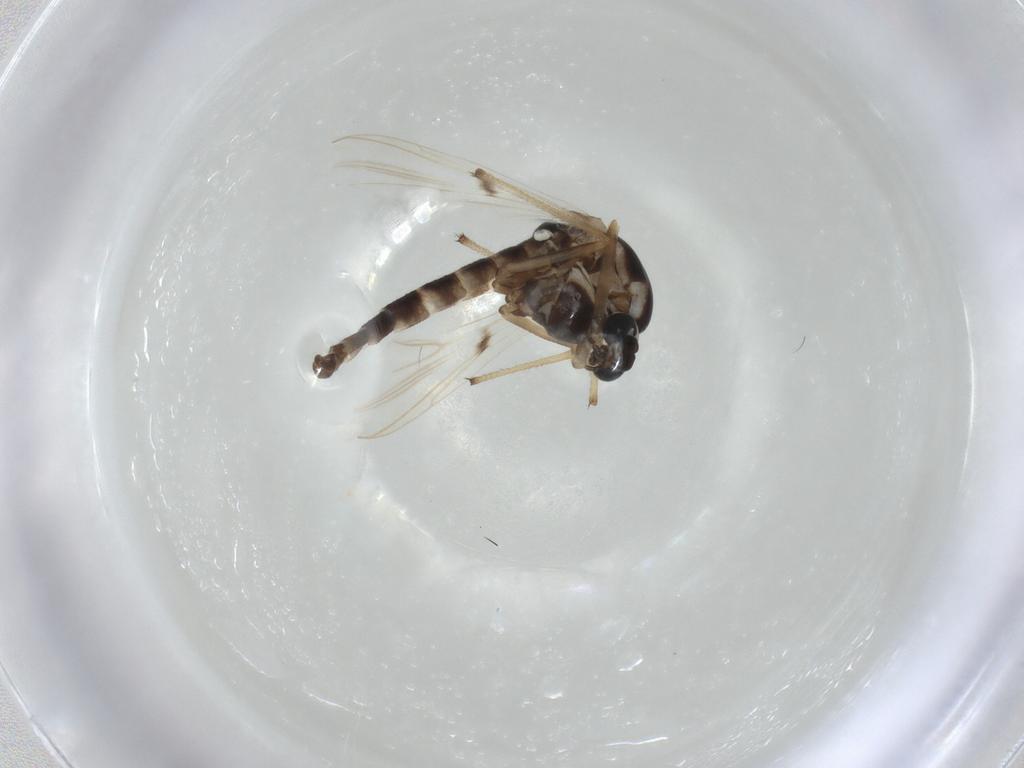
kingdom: Animalia
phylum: Arthropoda
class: Insecta
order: Diptera
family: Chironomidae
